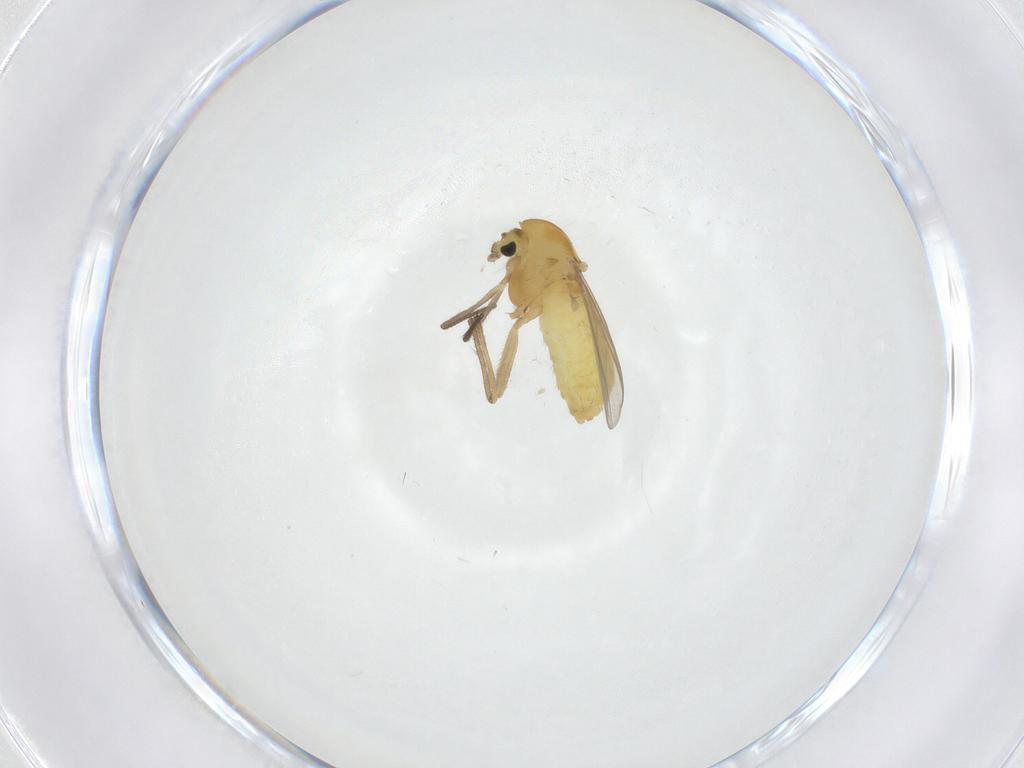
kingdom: Animalia
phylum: Arthropoda
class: Insecta
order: Diptera
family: Chironomidae
